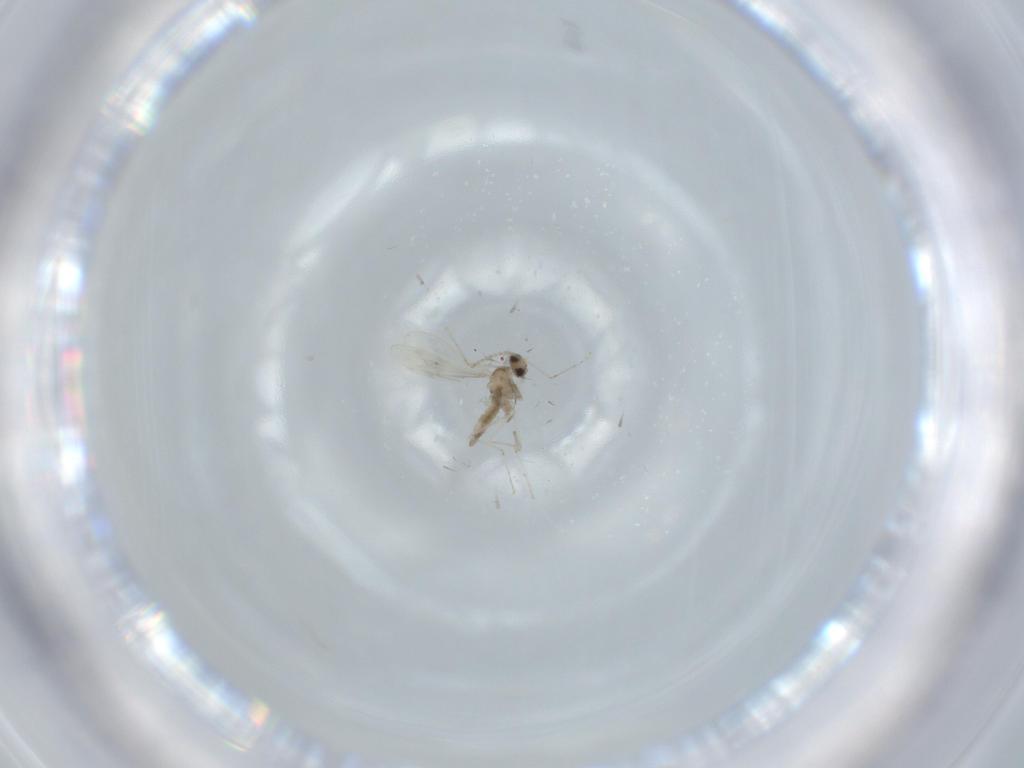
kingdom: Animalia
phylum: Arthropoda
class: Insecta
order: Diptera
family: Cecidomyiidae
